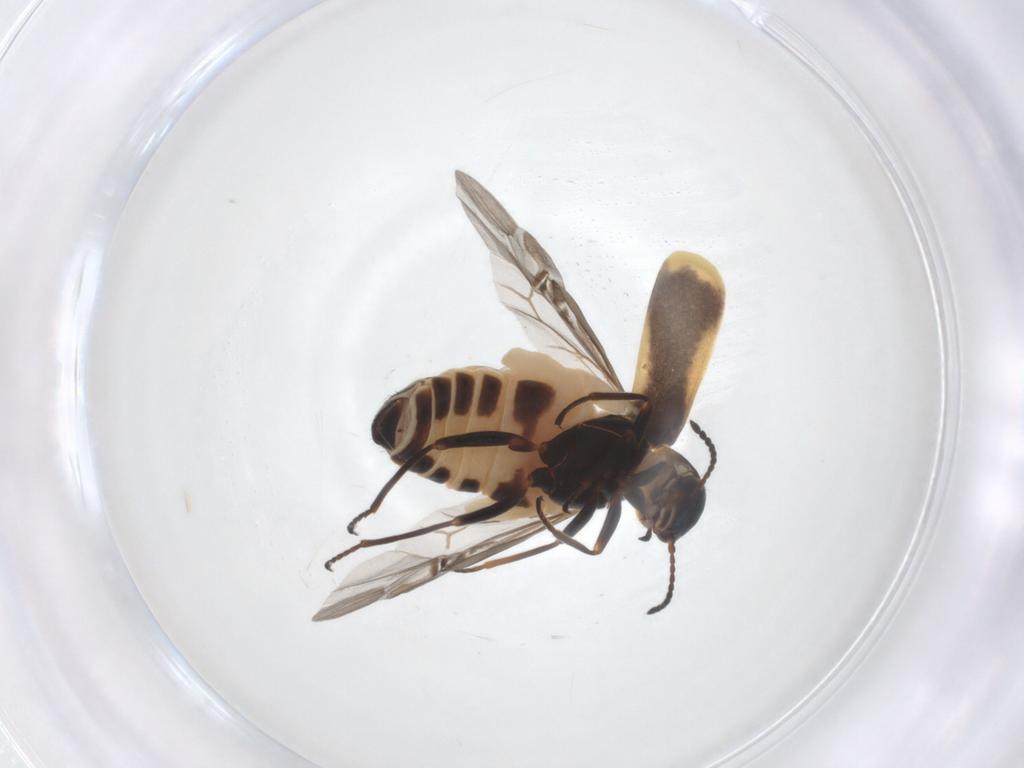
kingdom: Animalia
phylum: Arthropoda
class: Insecta
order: Coleoptera
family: Melyridae
